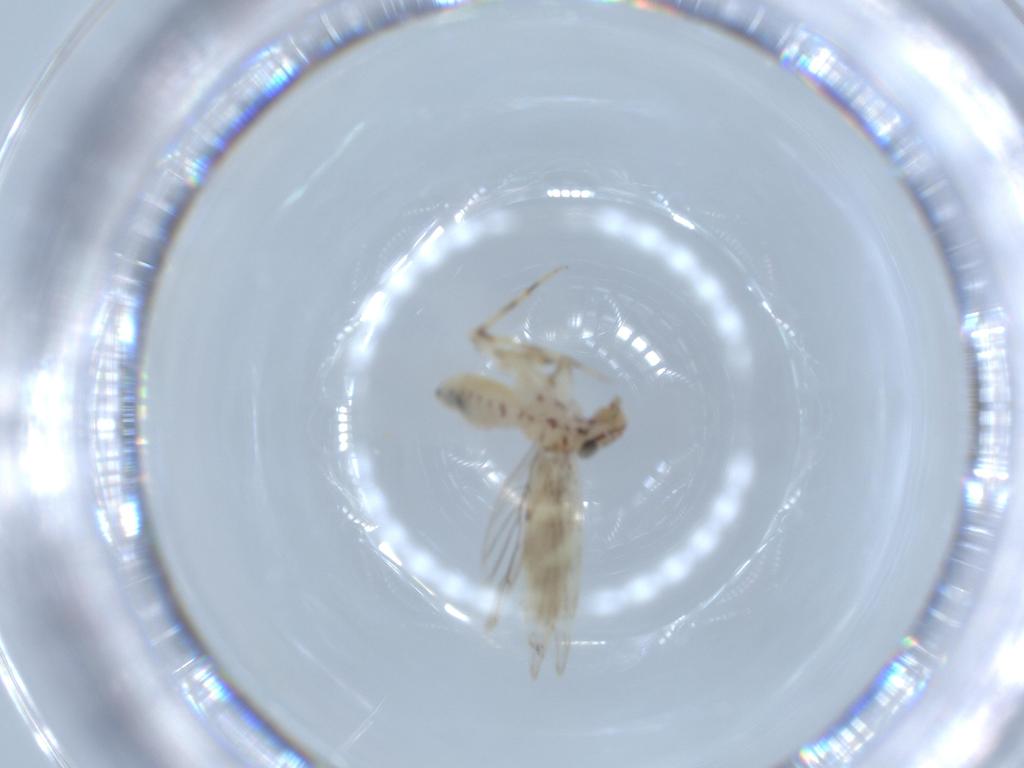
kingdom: Animalia
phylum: Arthropoda
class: Insecta
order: Psocodea
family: Lepidopsocidae
